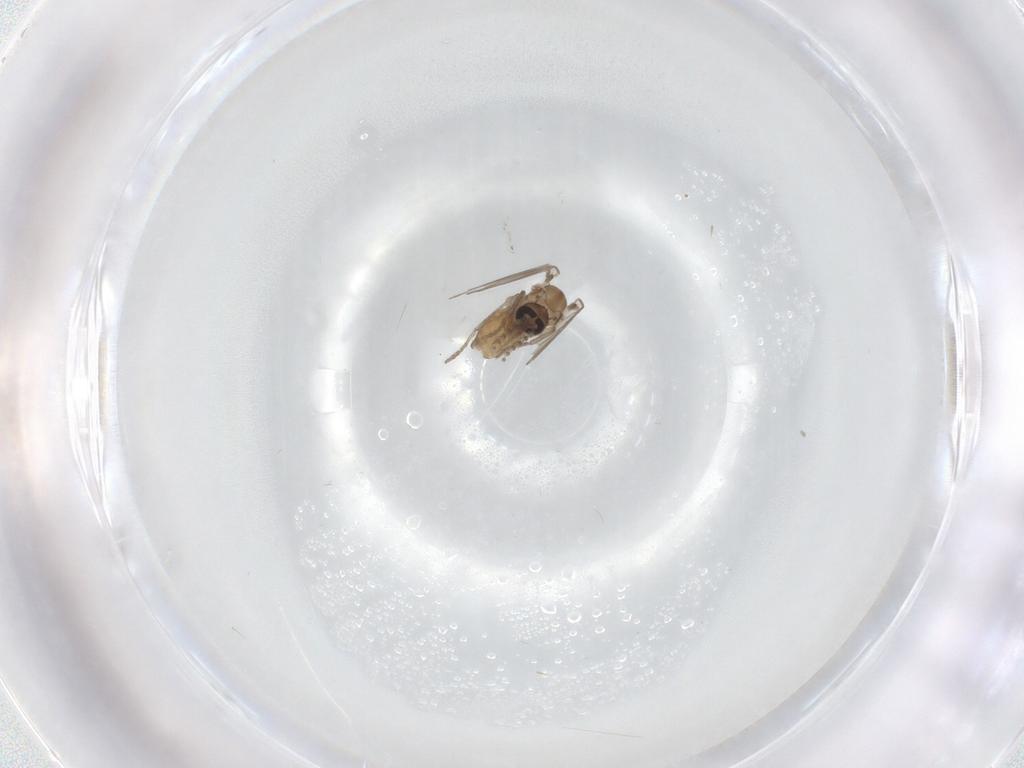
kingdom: Animalia
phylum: Arthropoda
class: Insecta
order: Diptera
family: Psychodidae
